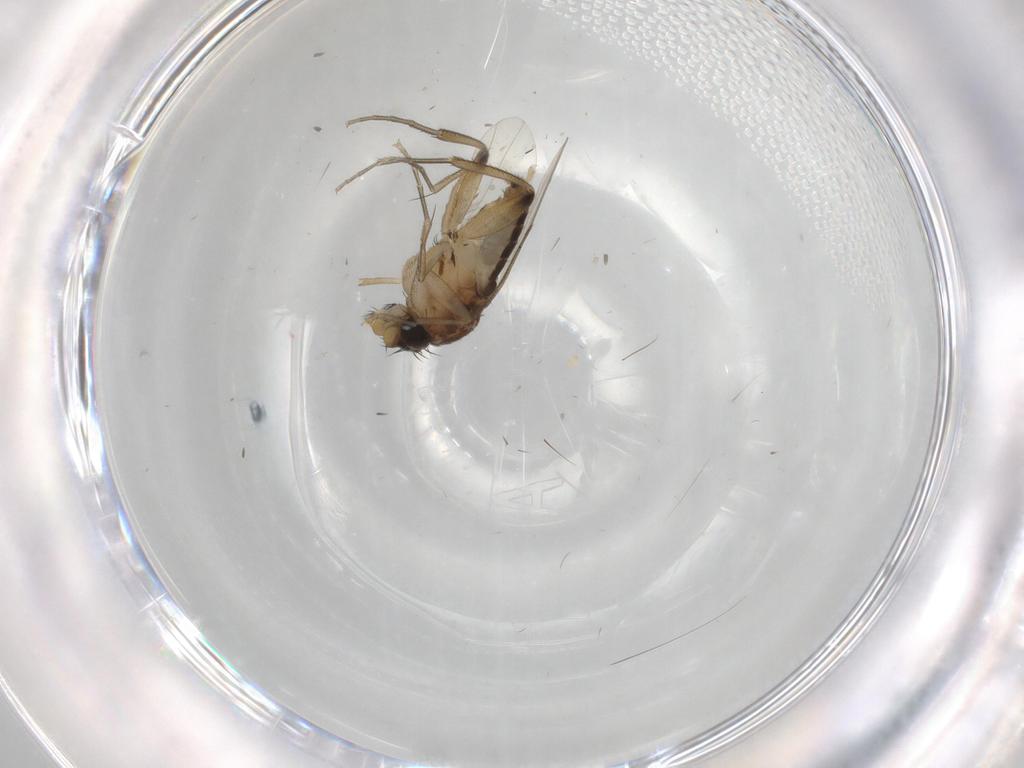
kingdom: Animalia
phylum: Arthropoda
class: Insecta
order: Diptera
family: Phoridae
